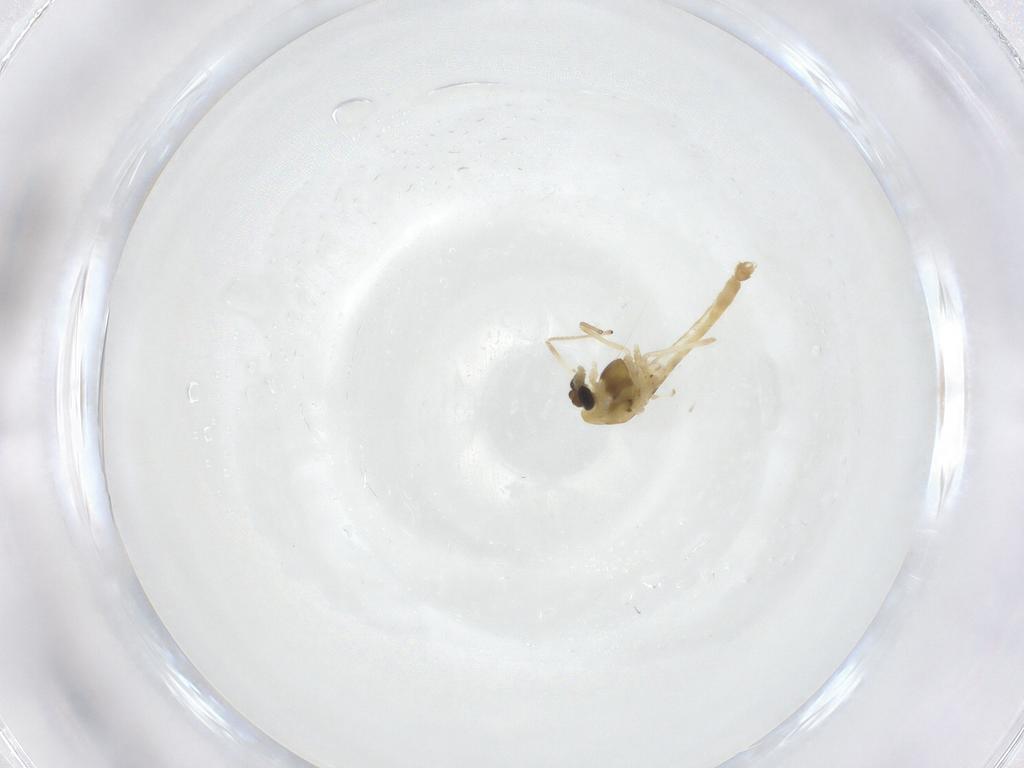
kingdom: Animalia
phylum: Arthropoda
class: Insecta
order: Diptera
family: Chironomidae
